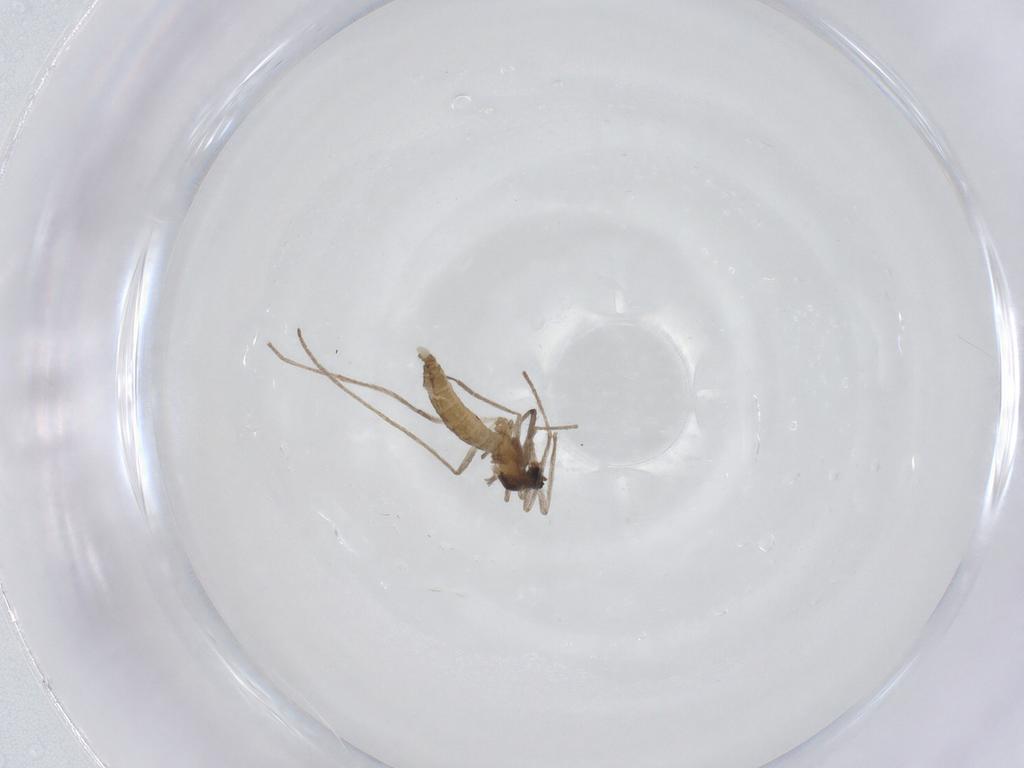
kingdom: Animalia
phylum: Arthropoda
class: Insecta
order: Diptera
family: Cecidomyiidae
